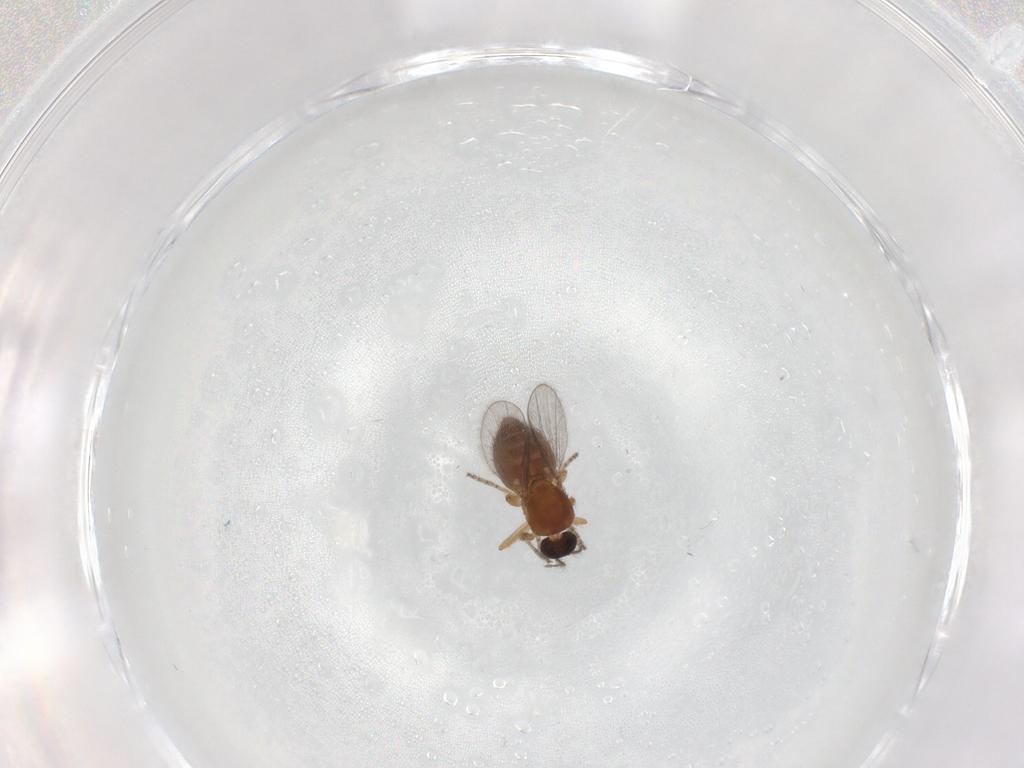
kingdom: Animalia
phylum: Arthropoda
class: Insecta
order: Diptera
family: Ceratopogonidae
